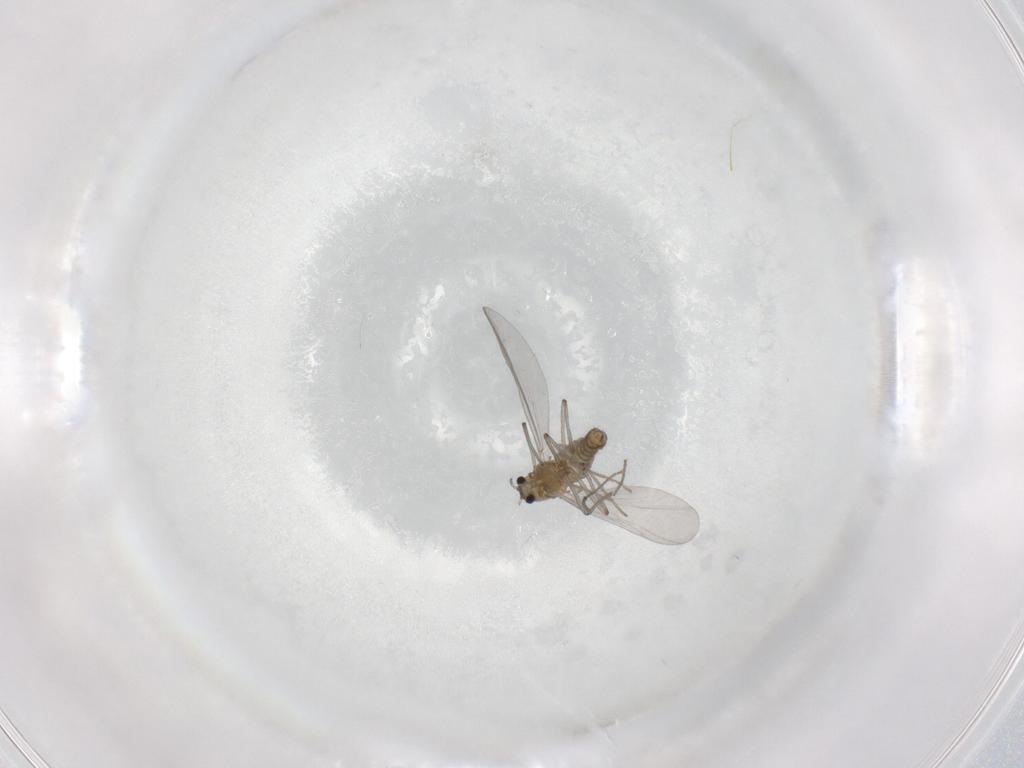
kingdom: Animalia
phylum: Arthropoda
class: Insecta
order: Diptera
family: Chironomidae
